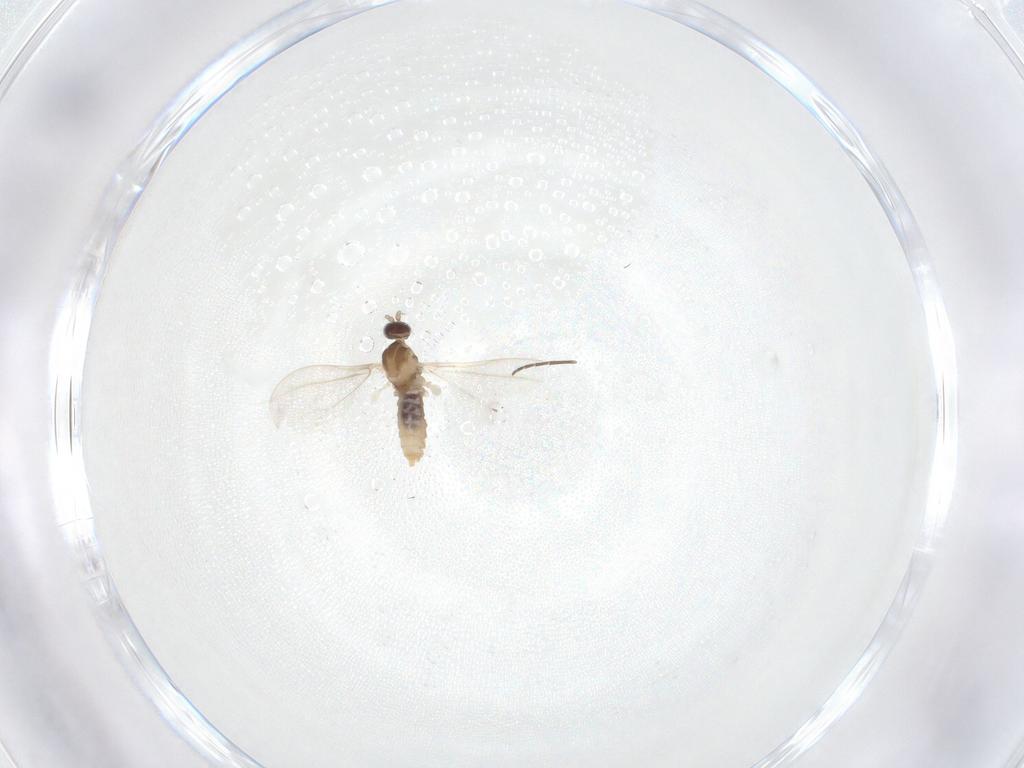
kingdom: Animalia
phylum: Arthropoda
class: Insecta
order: Diptera
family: Cecidomyiidae
